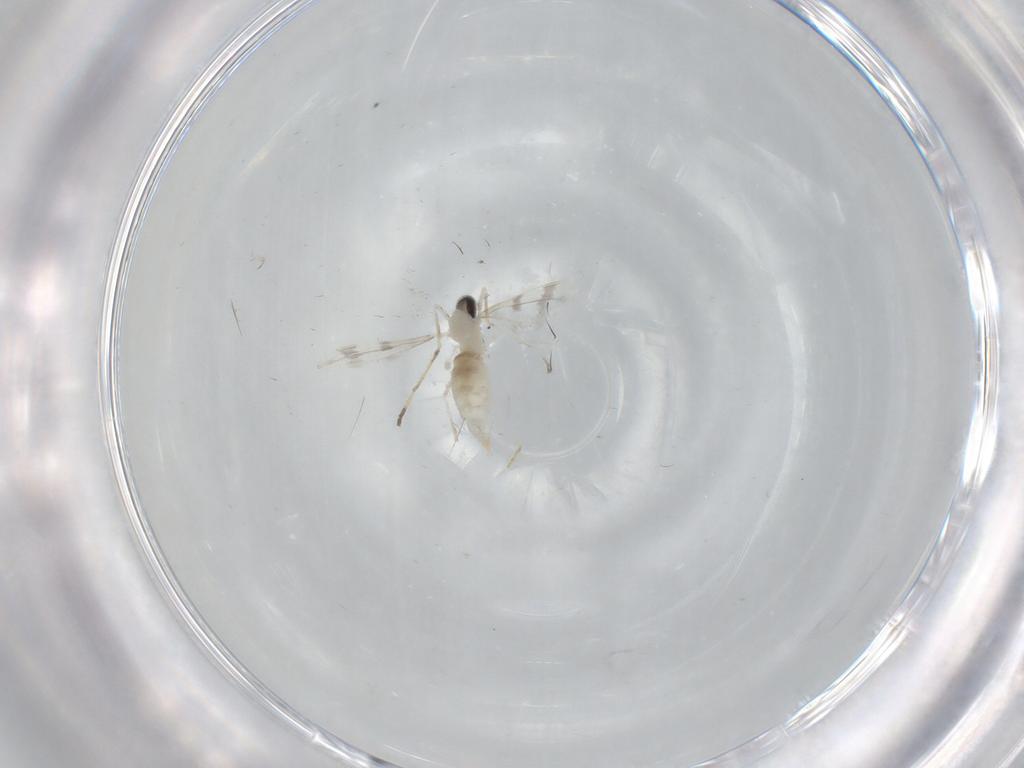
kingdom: Animalia
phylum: Arthropoda
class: Insecta
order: Diptera
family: Cecidomyiidae
